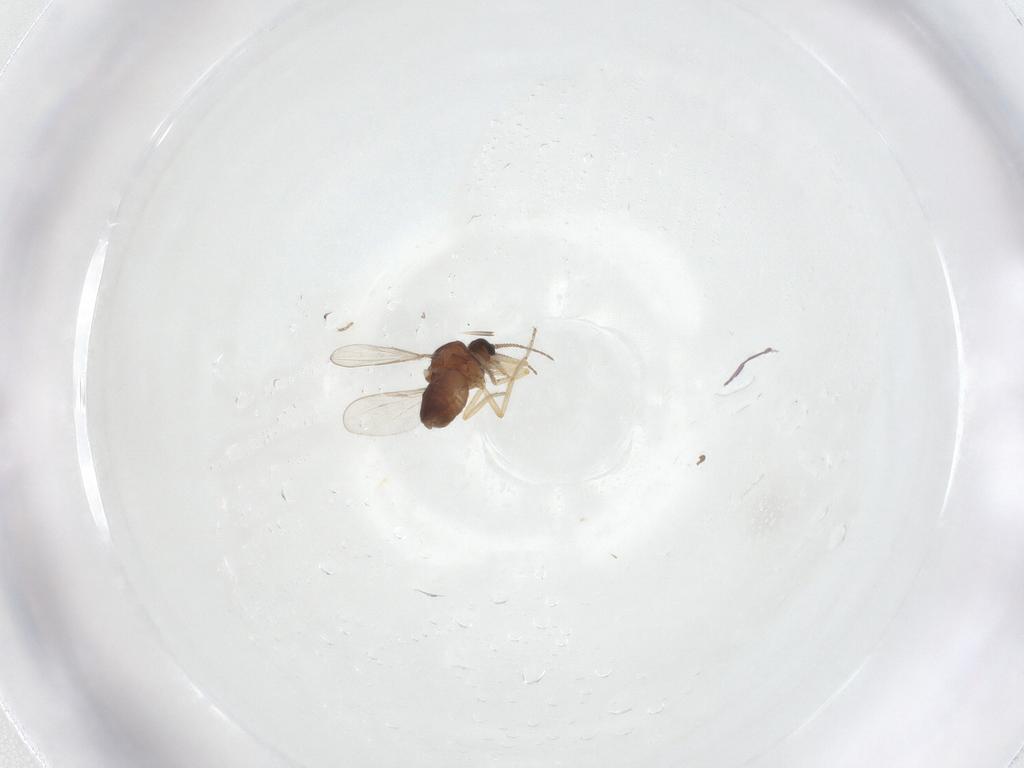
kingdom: Animalia
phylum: Arthropoda
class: Insecta
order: Diptera
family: Ceratopogonidae
